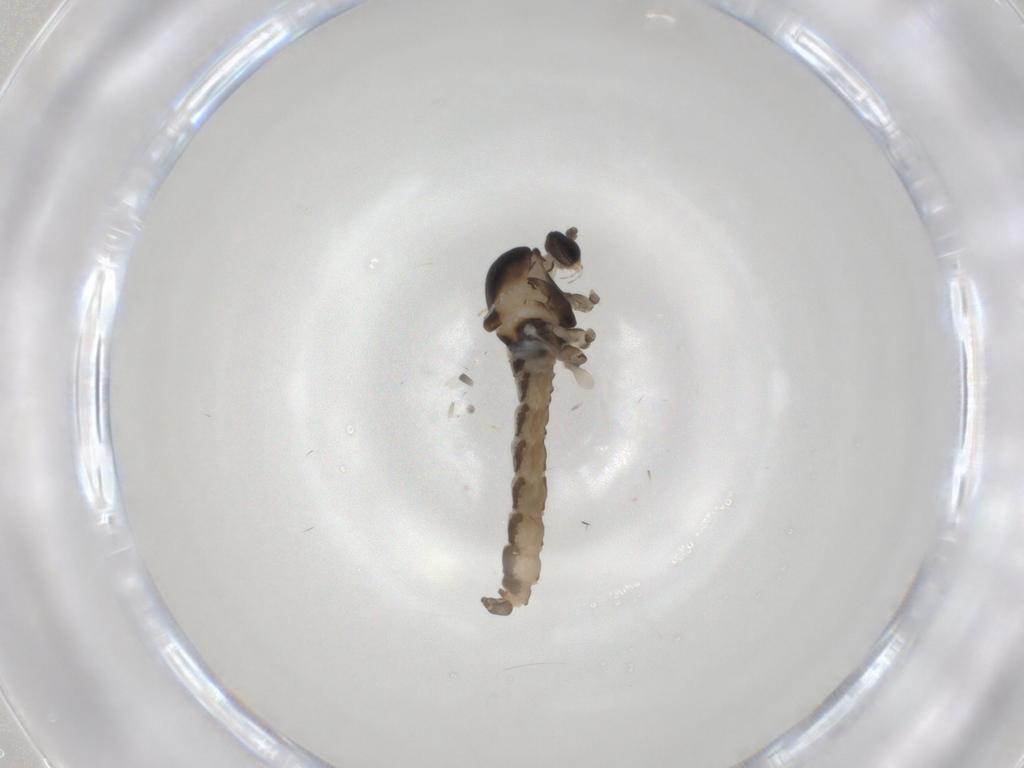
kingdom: Animalia
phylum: Arthropoda
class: Insecta
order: Diptera
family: Cecidomyiidae
